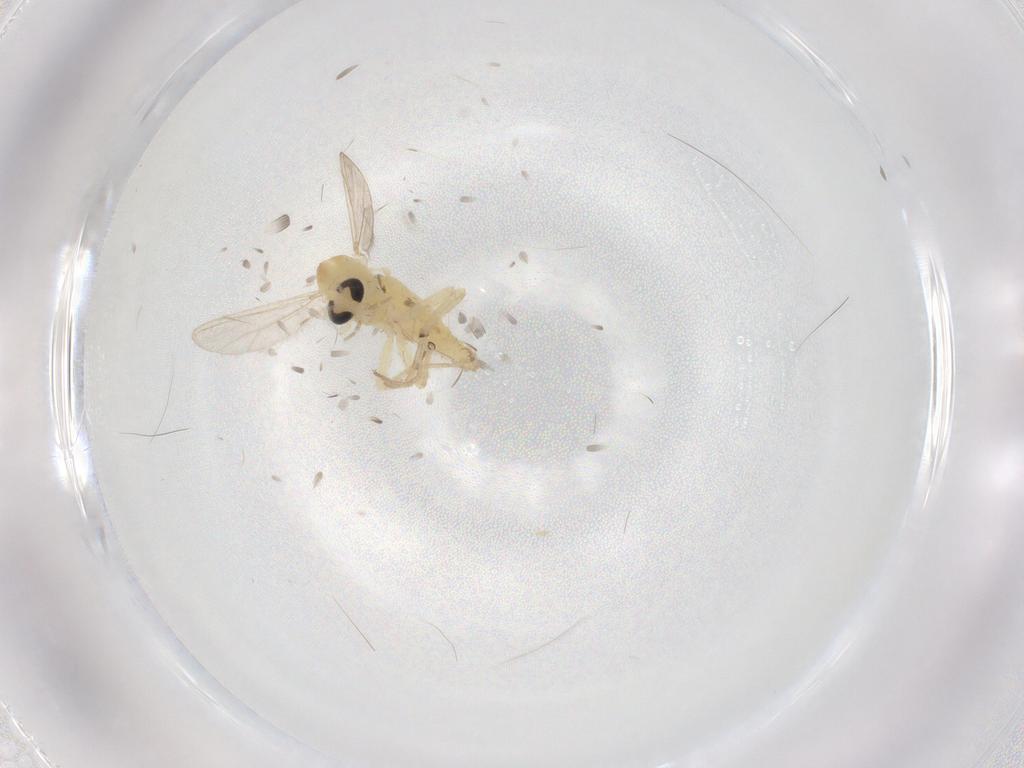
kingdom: Animalia
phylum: Arthropoda
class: Insecta
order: Diptera
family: Chironomidae
